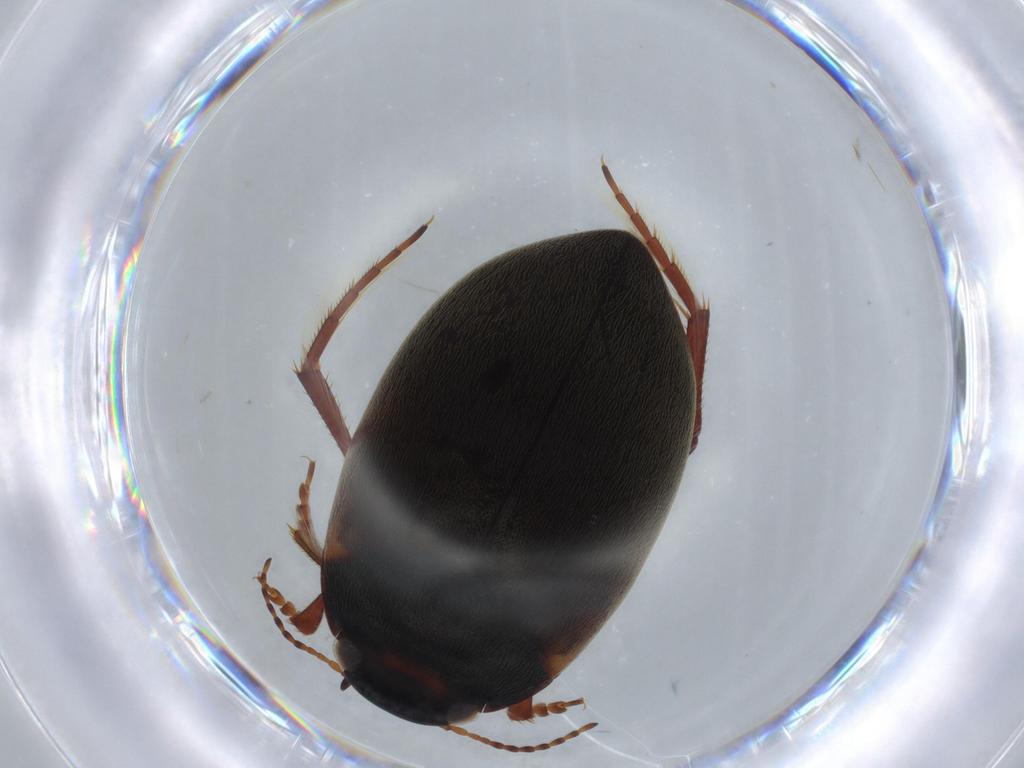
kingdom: Animalia
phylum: Arthropoda
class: Insecta
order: Coleoptera
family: Dytiscidae
